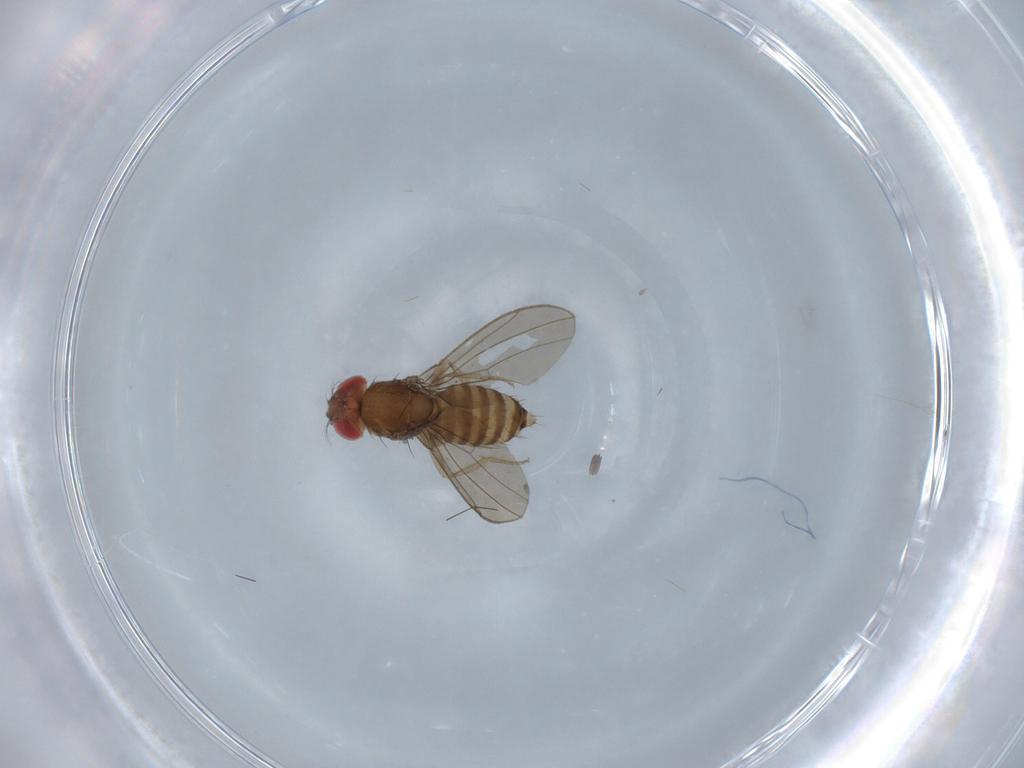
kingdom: Animalia
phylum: Arthropoda
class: Insecta
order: Diptera
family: Drosophilidae
